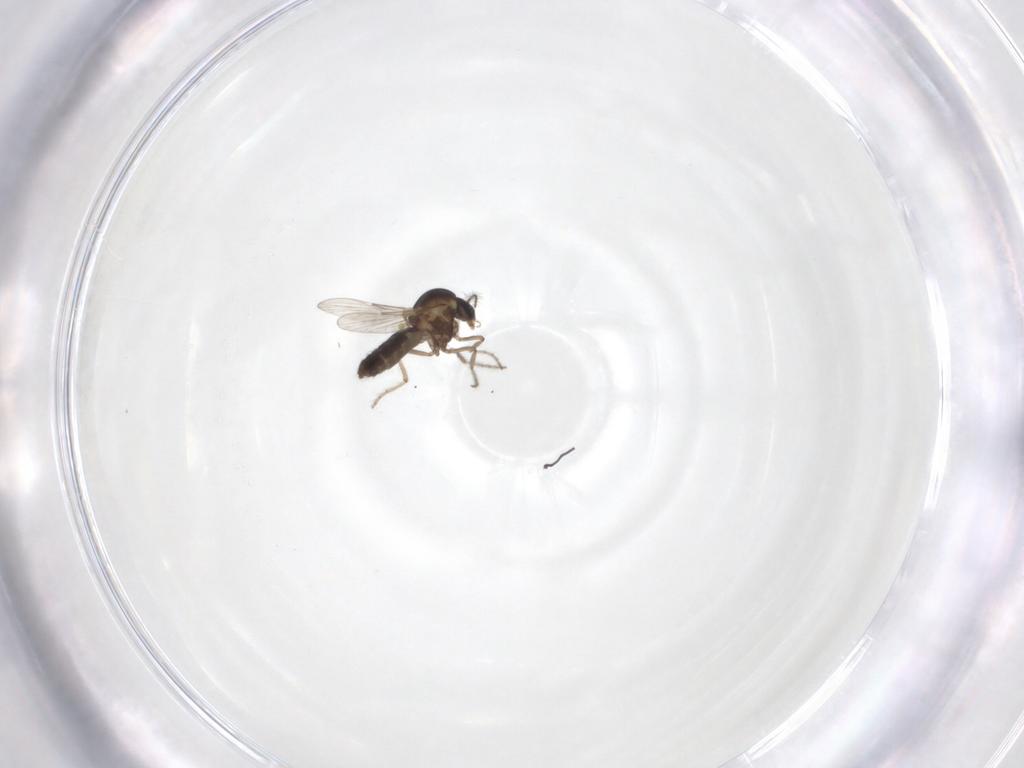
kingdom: Animalia
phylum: Arthropoda
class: Insecta
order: Diptera
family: Ceratopogonidae
